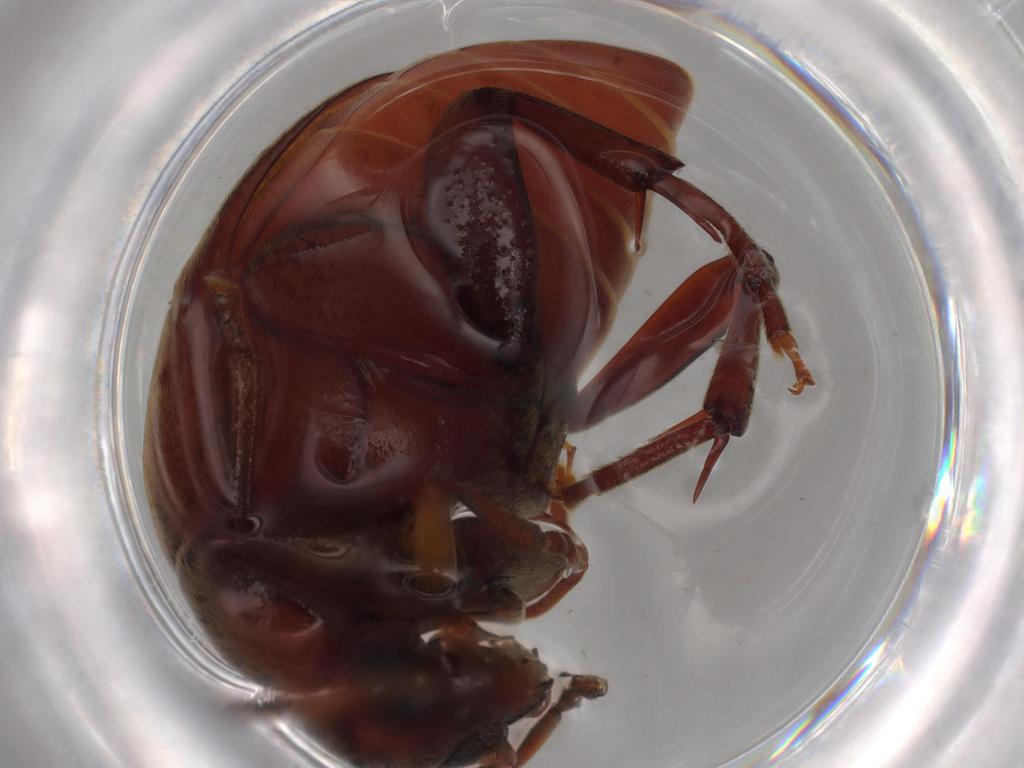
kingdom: Animalia
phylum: Arthropoda
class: Insecta
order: Coleoptera
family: Chrysomelidae
